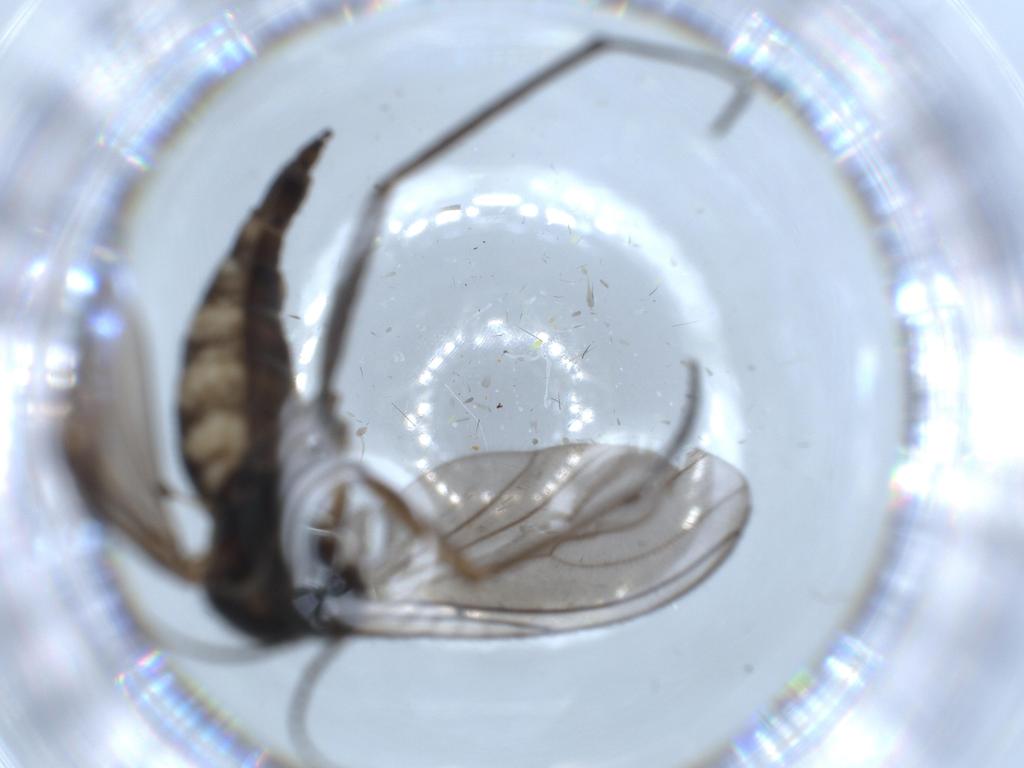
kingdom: Animalia
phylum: Arthropoda
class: Insecta
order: Diptera
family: Sciaridae
